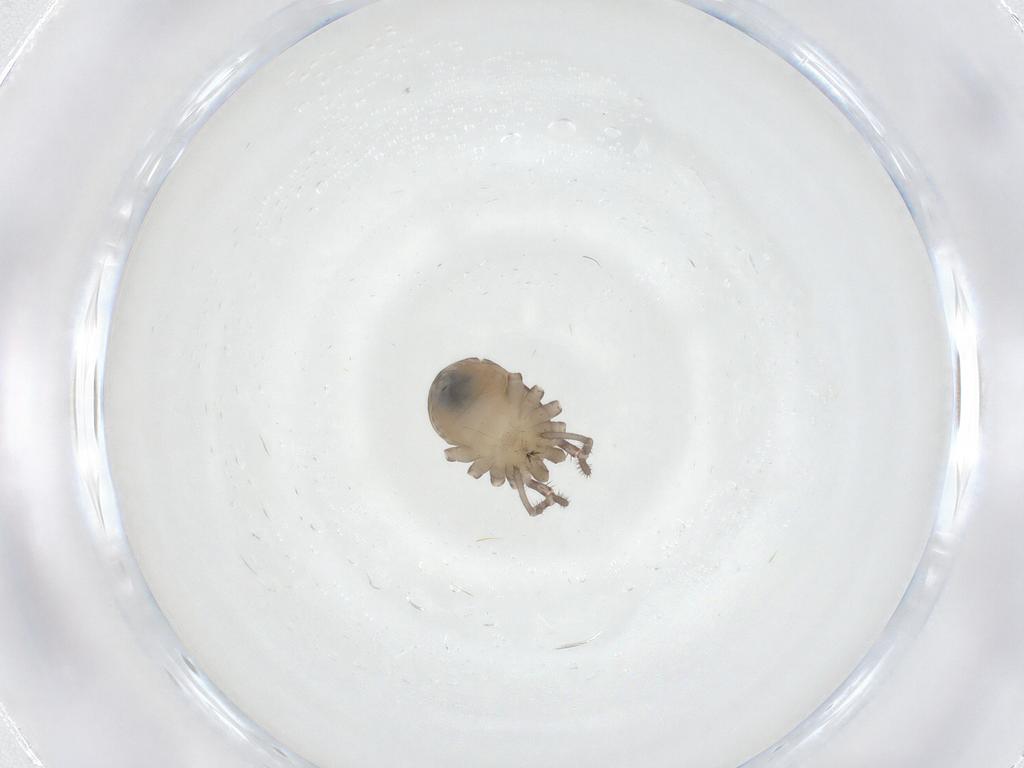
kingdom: Animalia
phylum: Arthropoda
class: Arachnida
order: Opiliones
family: Sclerosomatidae
